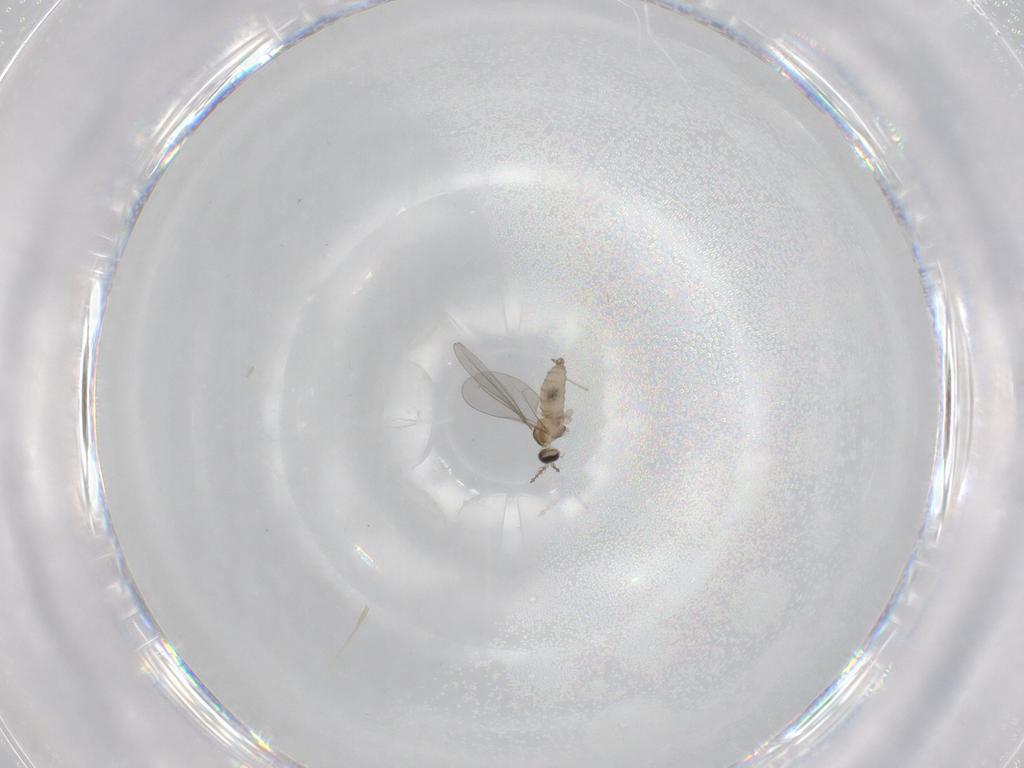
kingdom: Animalia
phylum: Arthropoda
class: Insecta
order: Diptera
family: Cecidomyiidae
